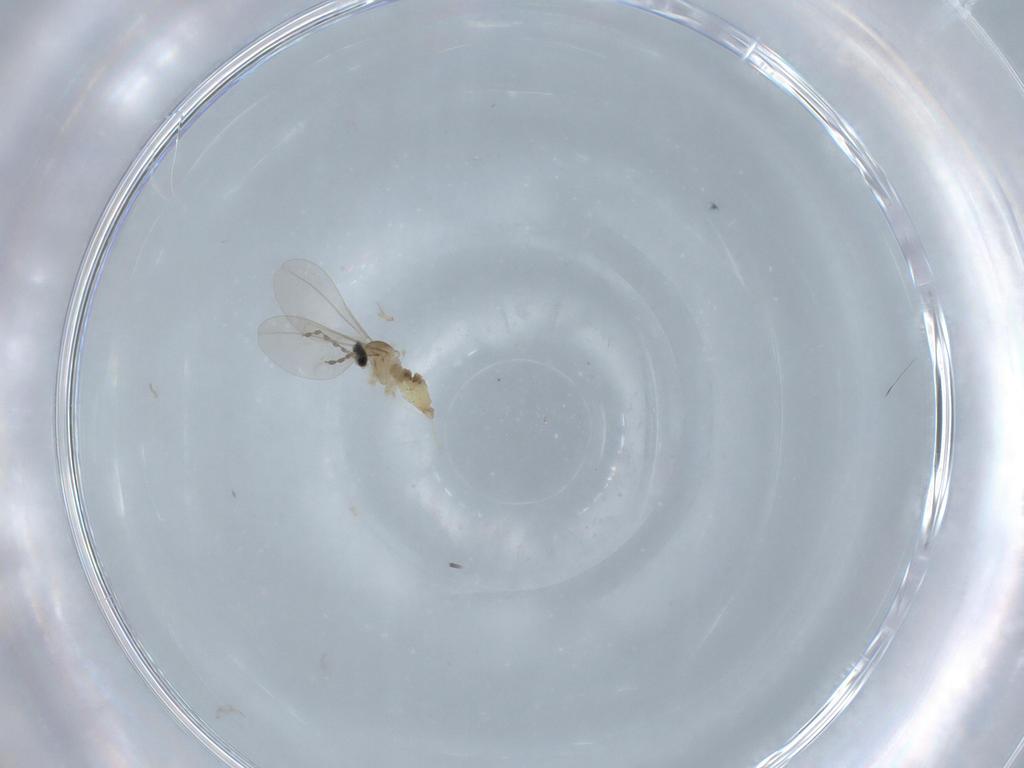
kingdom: Animalia
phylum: Arthropoda
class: Insecta
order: Diptera
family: Cecidomyiidae
